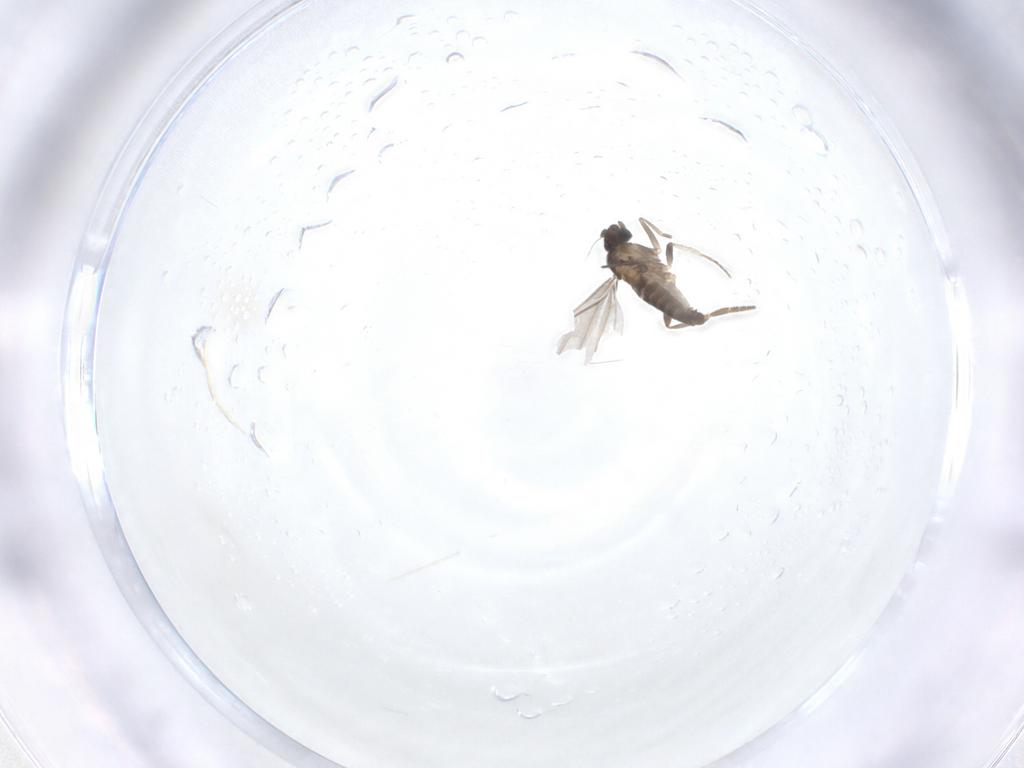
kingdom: Animalia
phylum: Arthropoda
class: Insecta
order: Diptera
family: Phoridae
